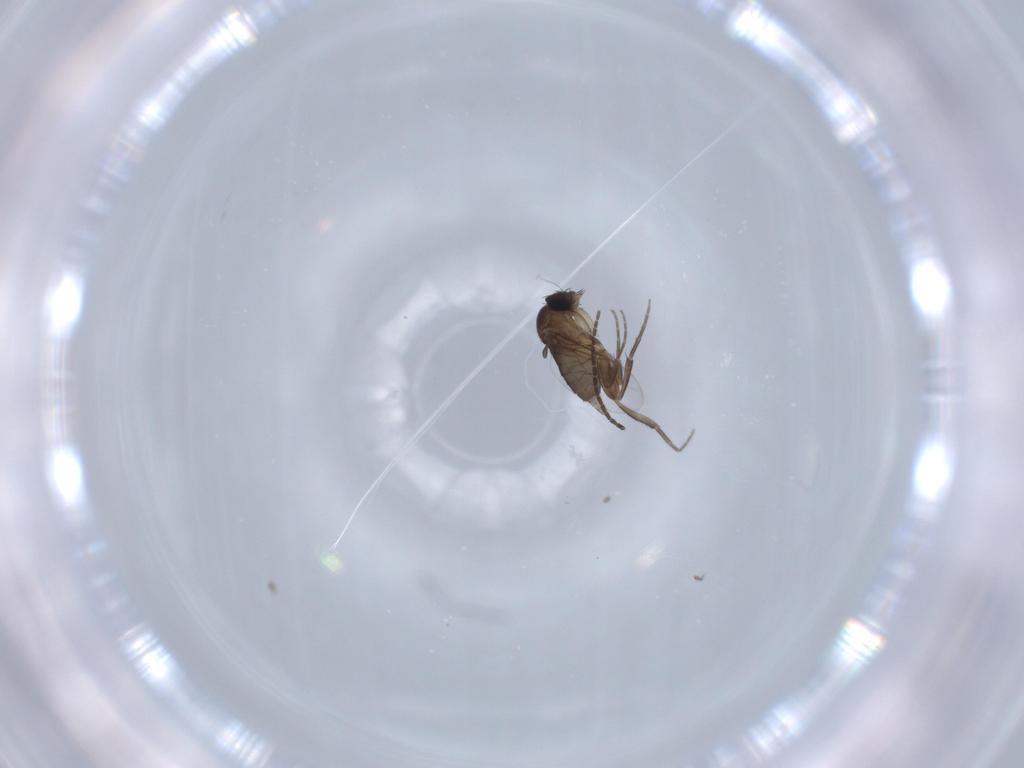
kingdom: Animalia
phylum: Arthropoda
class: Insecta
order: Diptera
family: Phoridae
